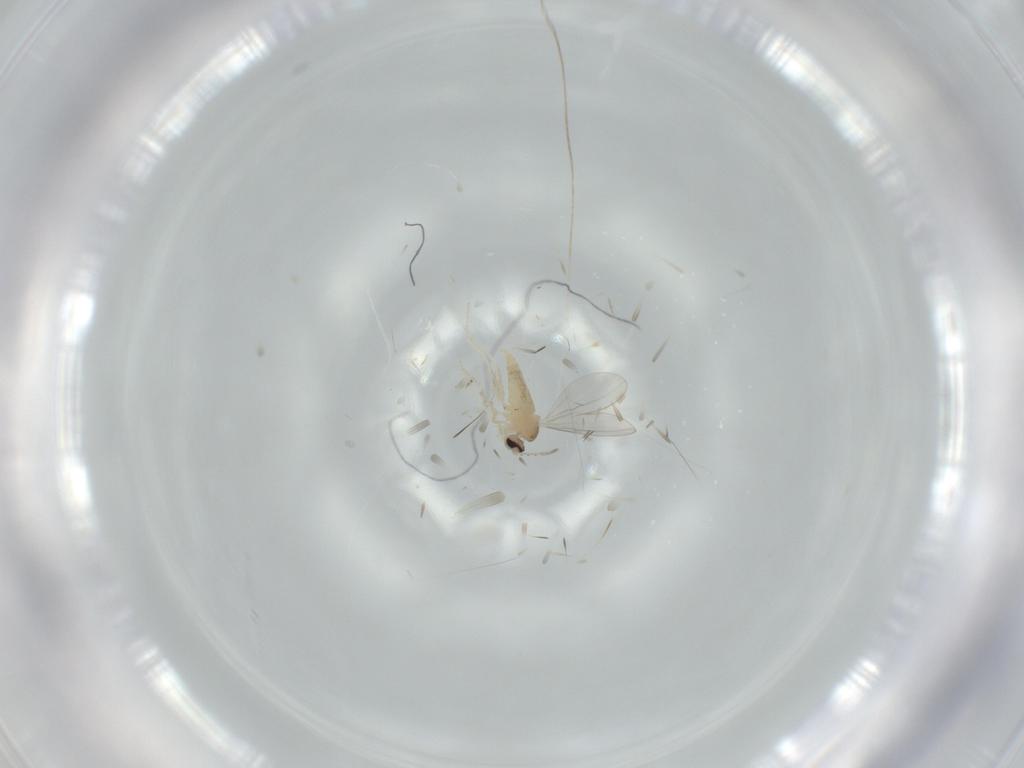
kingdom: Animalia
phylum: Arthropoda
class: Insecta
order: Diptera
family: Cecidomyiidae
